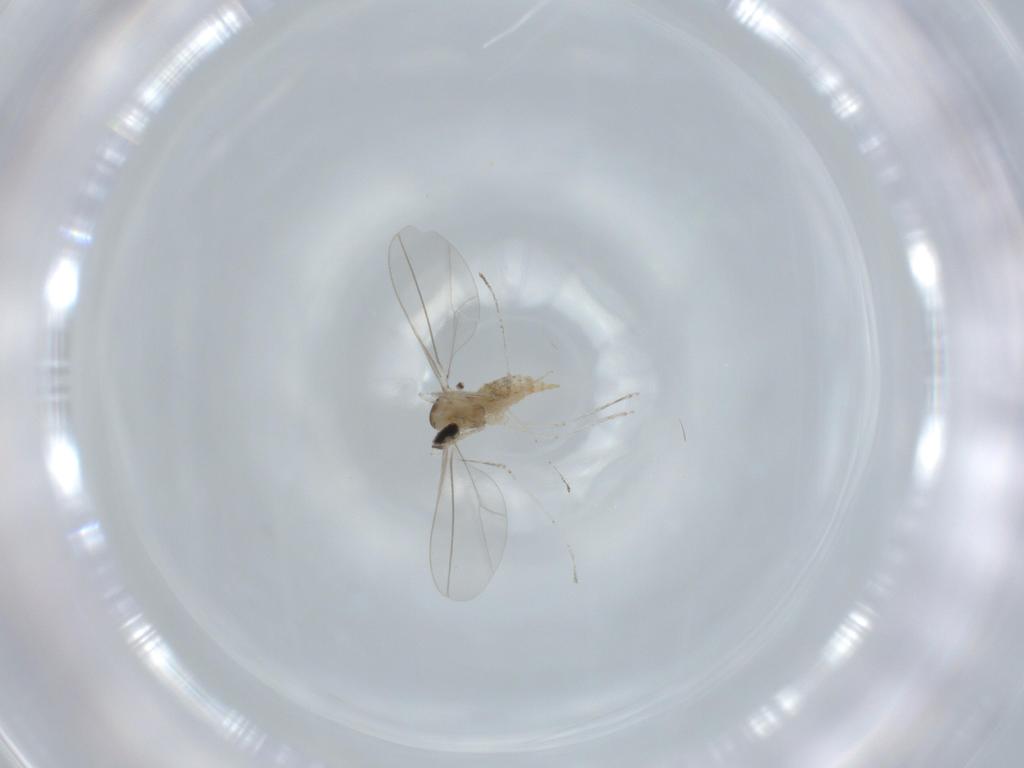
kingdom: Animalia
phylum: Arthropoda
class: Insecta
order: Diptera
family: Cecidomyiidae
